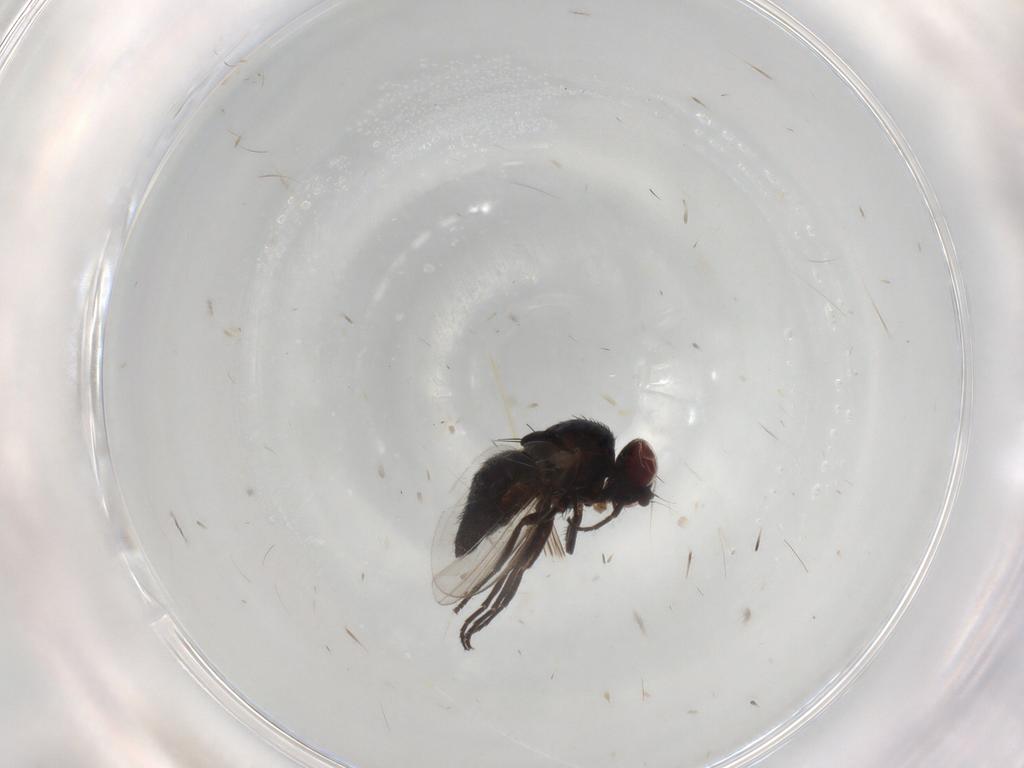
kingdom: Animalia
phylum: Arthropoda
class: Insecta
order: Diptera
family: Agromyzidae
